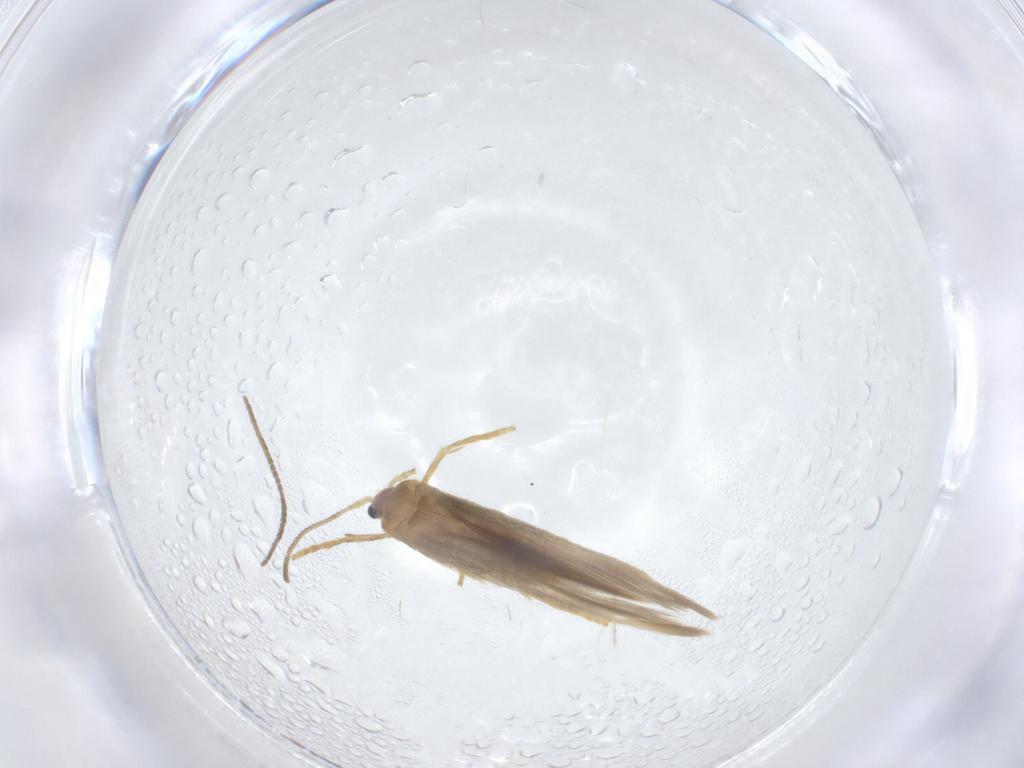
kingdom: Animalia
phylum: Arthropoda
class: Insecta
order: Lepidoptera
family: Nepticulidae
